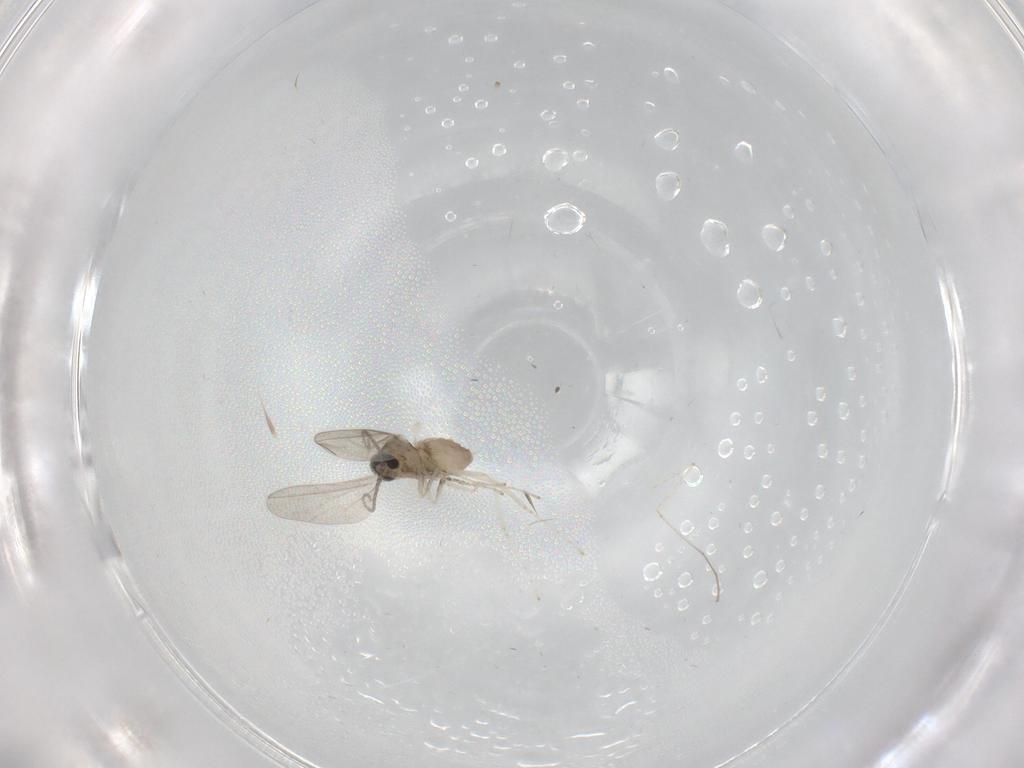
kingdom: Animalia
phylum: Arthropoda
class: Insecta
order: Diptera
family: Cecidomyiidae
